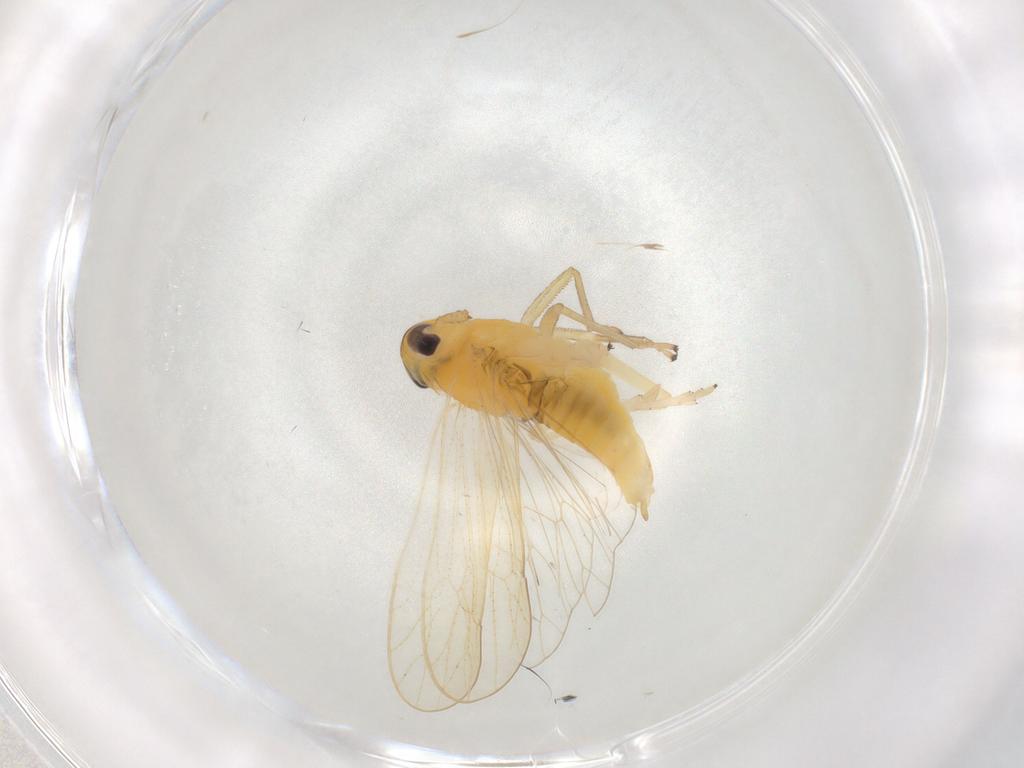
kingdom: Animalia
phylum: Arthropoda
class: Insecta
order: Hemiptera
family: Delphacidae
